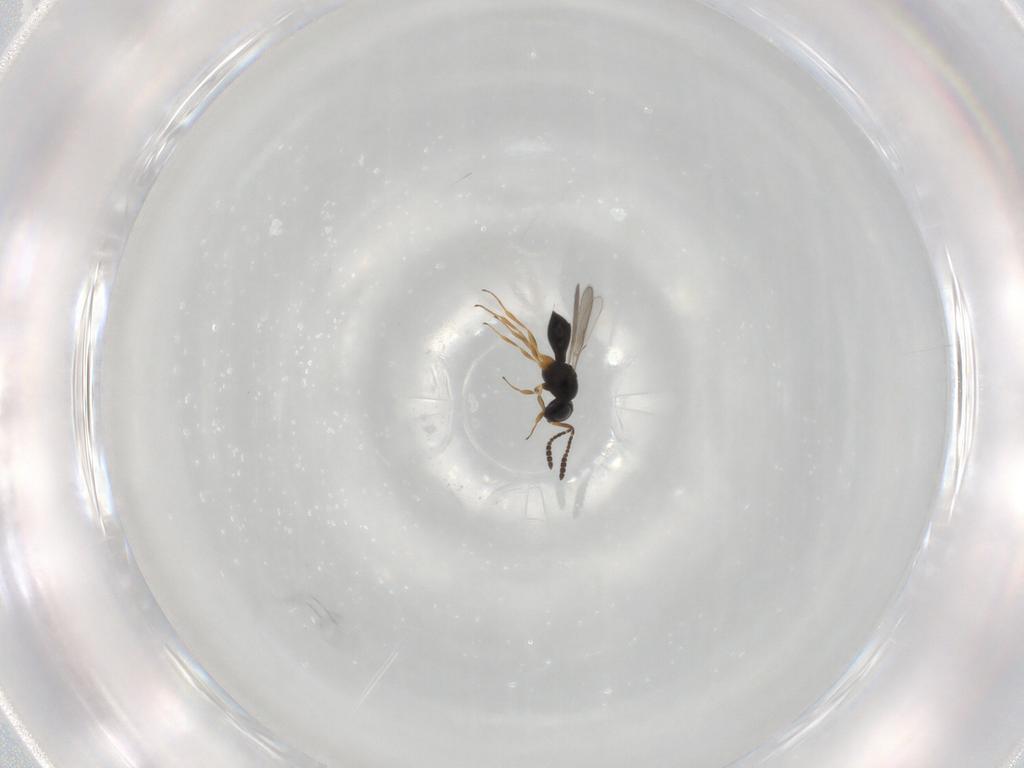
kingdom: Animalia
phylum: Arthropoda
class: Insecta
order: Hymenoptera
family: Scelionidae
